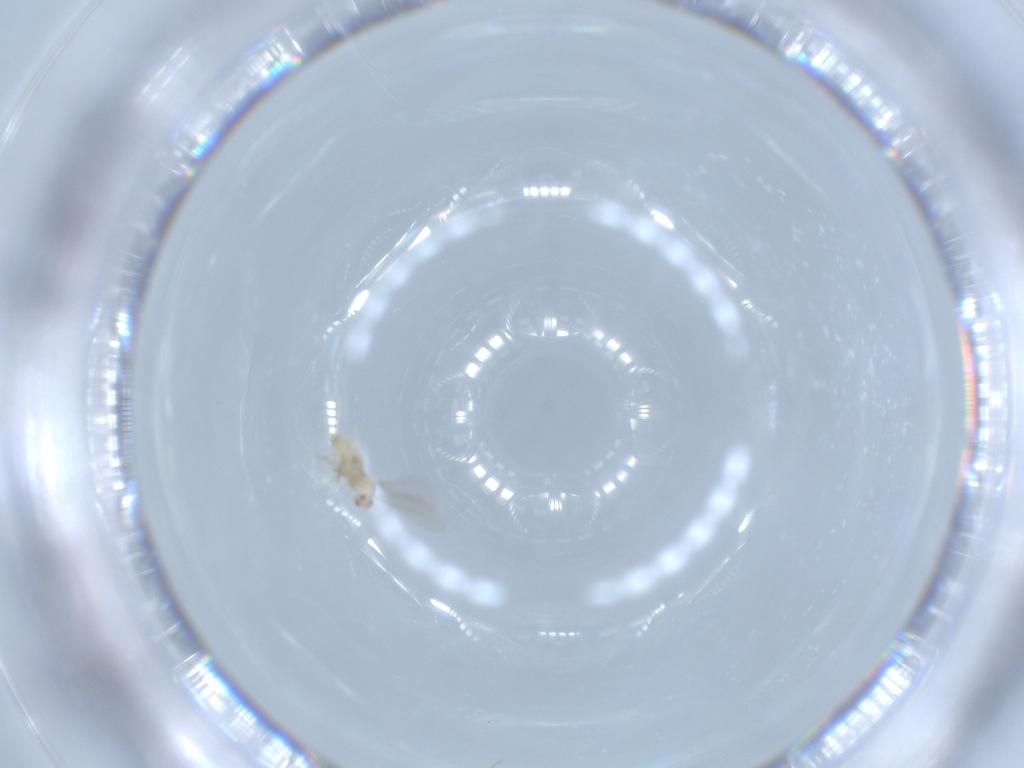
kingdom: Animalia
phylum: Arthropoda
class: Insecta
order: Diptera
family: Cecidomyiidae
